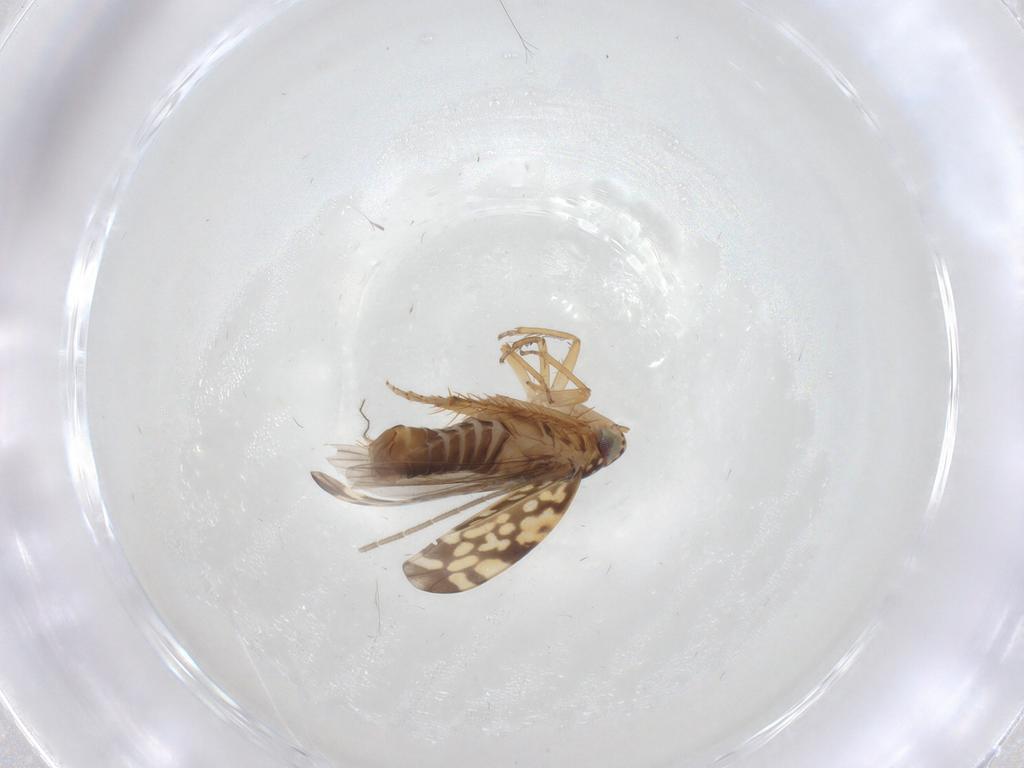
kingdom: Animalia
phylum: Arthropoda
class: Insecta
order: Hemiptera
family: Cicadellidae
